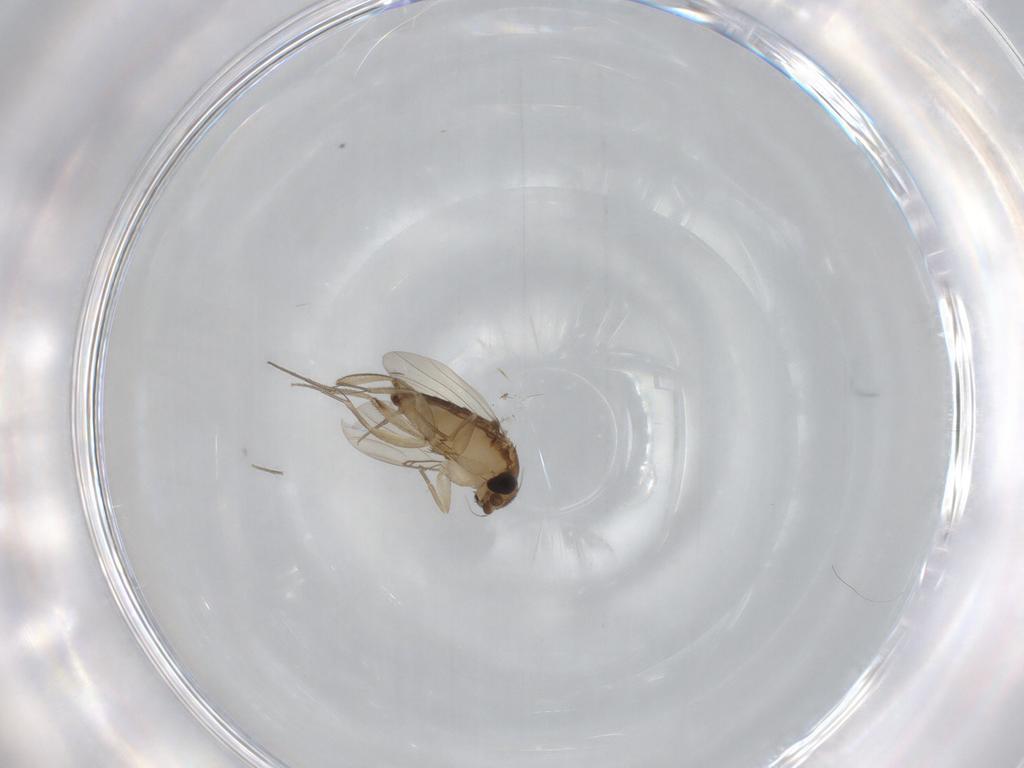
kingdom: Animalia
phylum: Arthropoda
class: Insecta
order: Diptera
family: Phoridae
